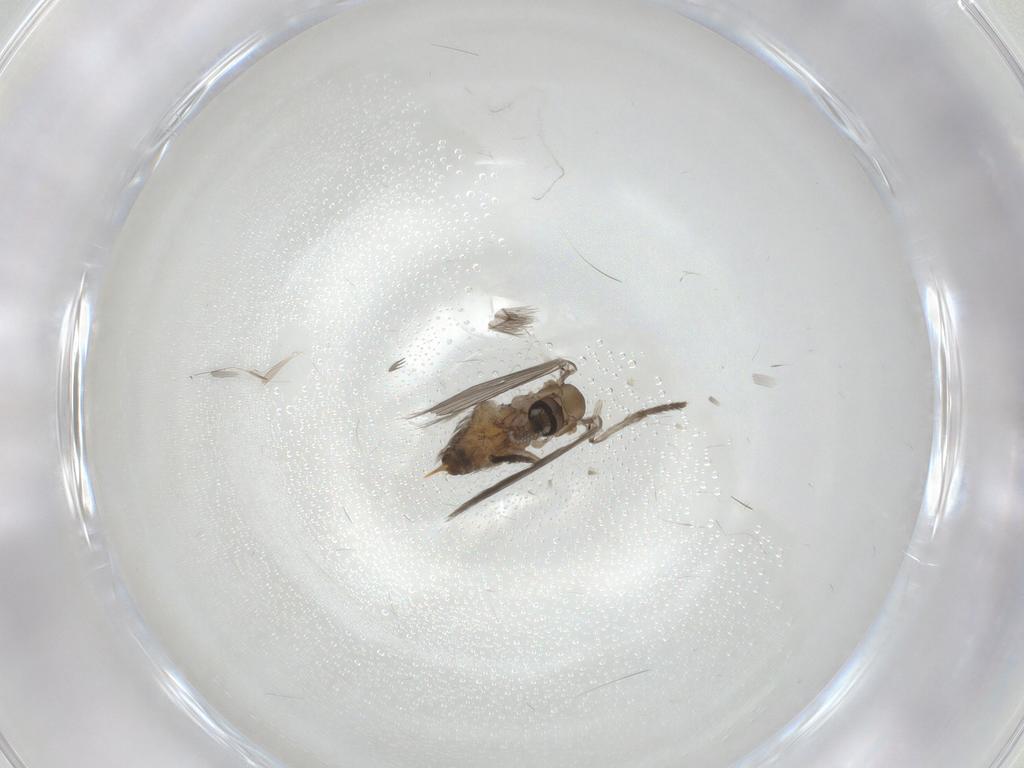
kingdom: Animalia
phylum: Arthropoda
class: Insecta
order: Diptera
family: Psychodidae
